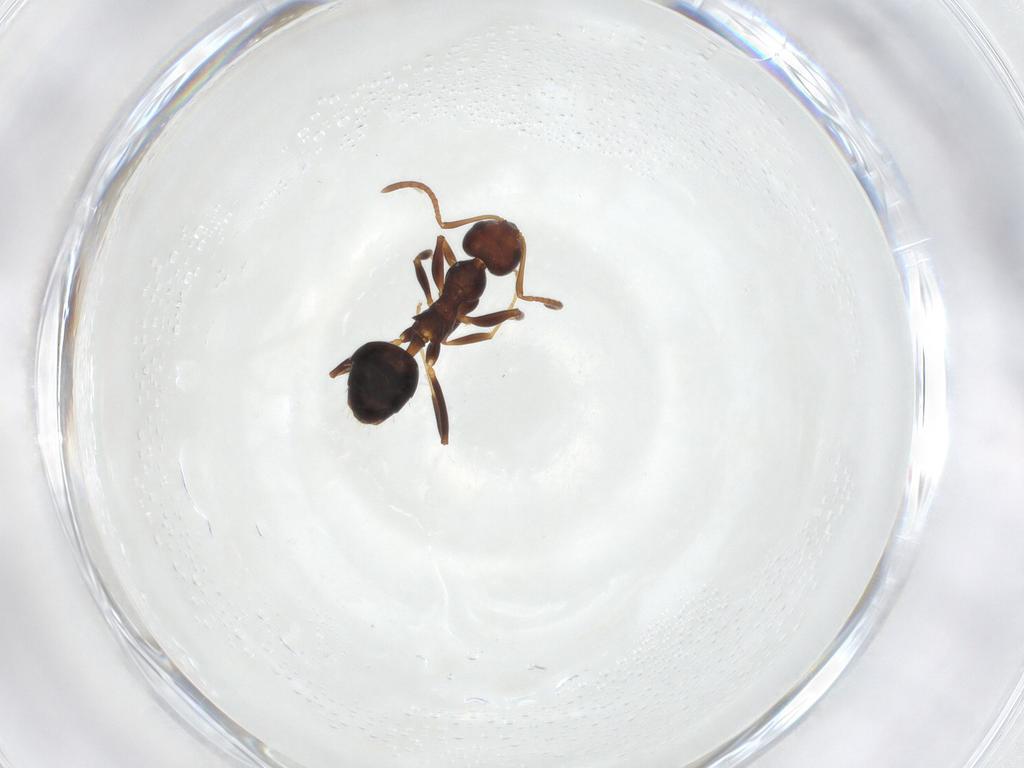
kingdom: Animalia
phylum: Arthropoda
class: Insecta
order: Hymenoptera
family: Formicidae
